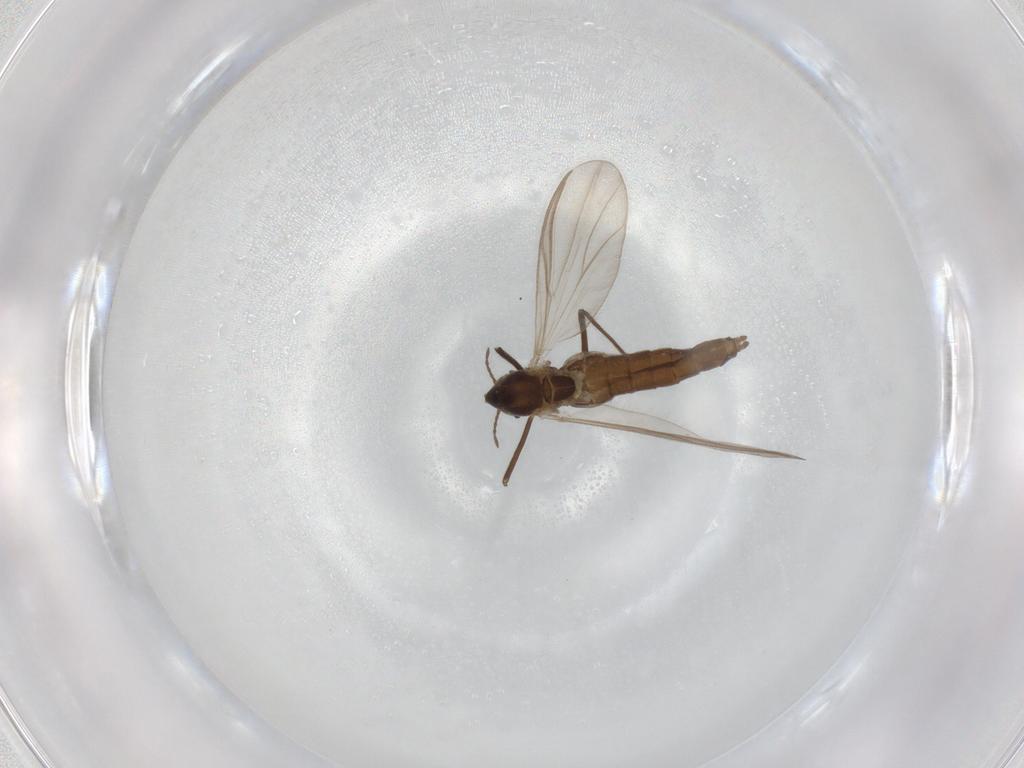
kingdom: Animalia
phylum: Arthropoda
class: Insecta
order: Diptera
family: Chironomidae
